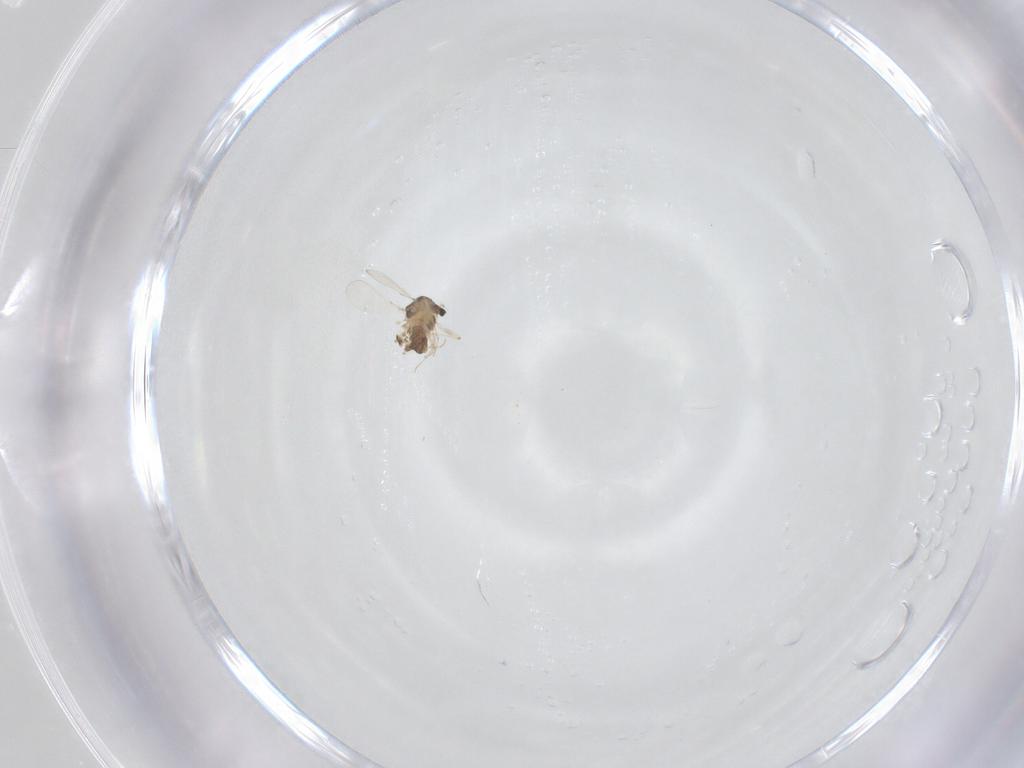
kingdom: Animalia
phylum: Arthropoda
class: Insecta
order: Diptera
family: Chironomidae
